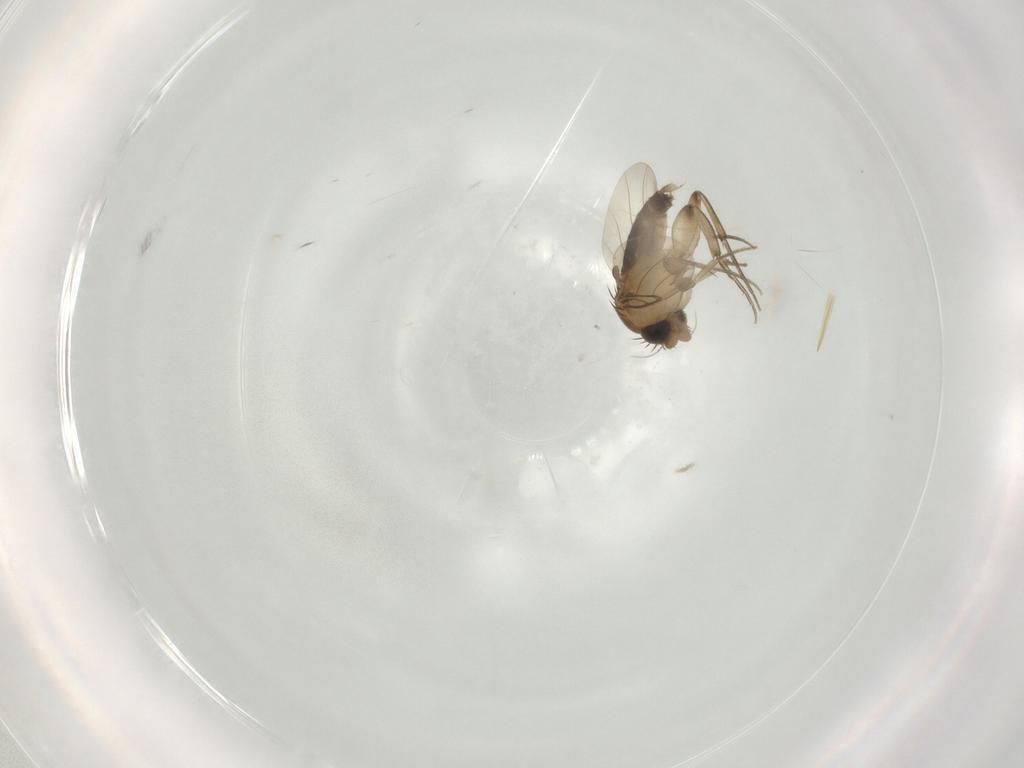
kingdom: Animalia
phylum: Arthropoda
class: Insecta
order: Diptera
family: Phoridae
